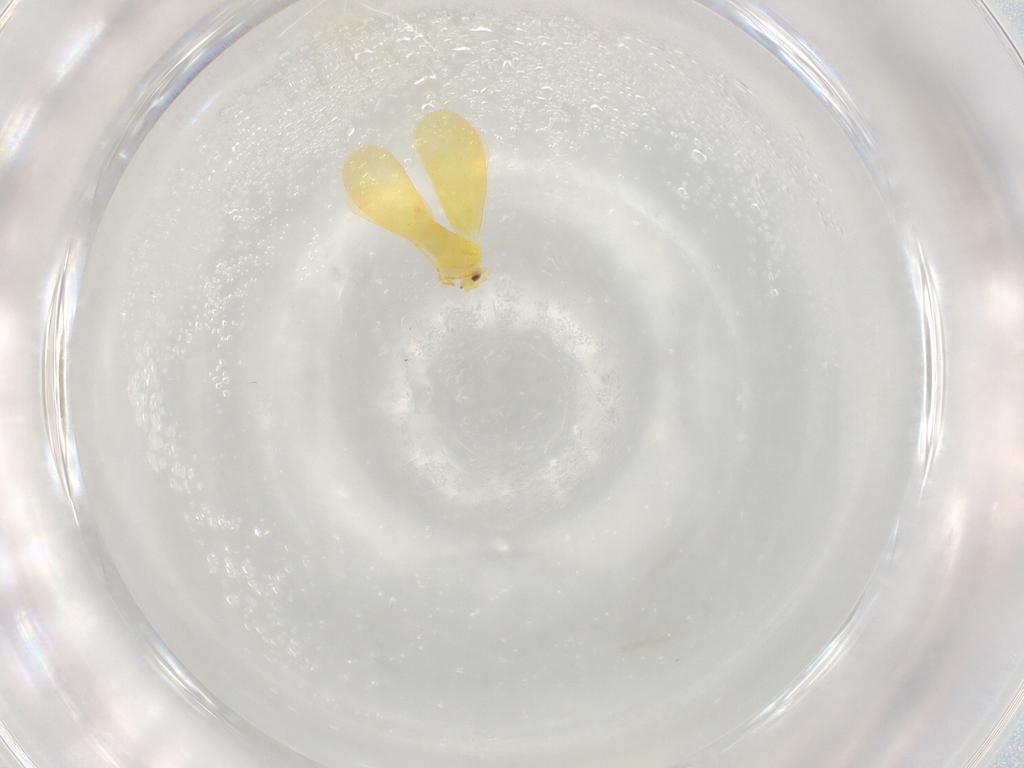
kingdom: Animalia
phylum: Arthropoda
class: Insecta
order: Hemiptera
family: Aleyrodidae
